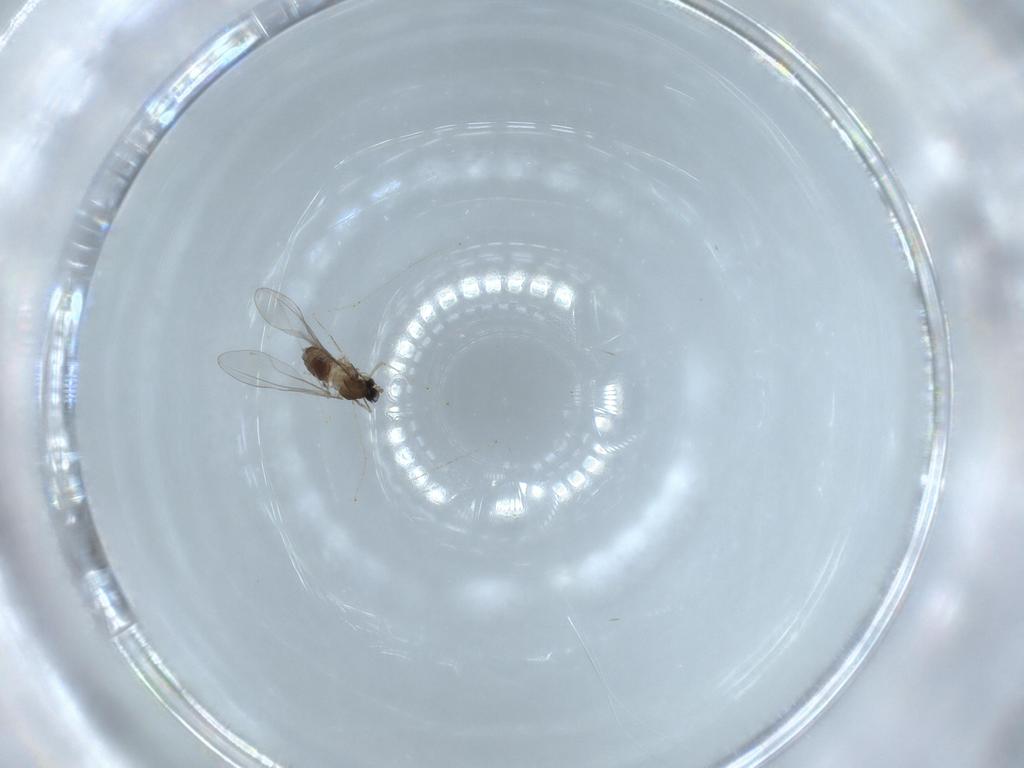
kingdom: Animalia
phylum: Arthropoda
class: Insecta
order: Diptera
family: Cecidomyiidae
